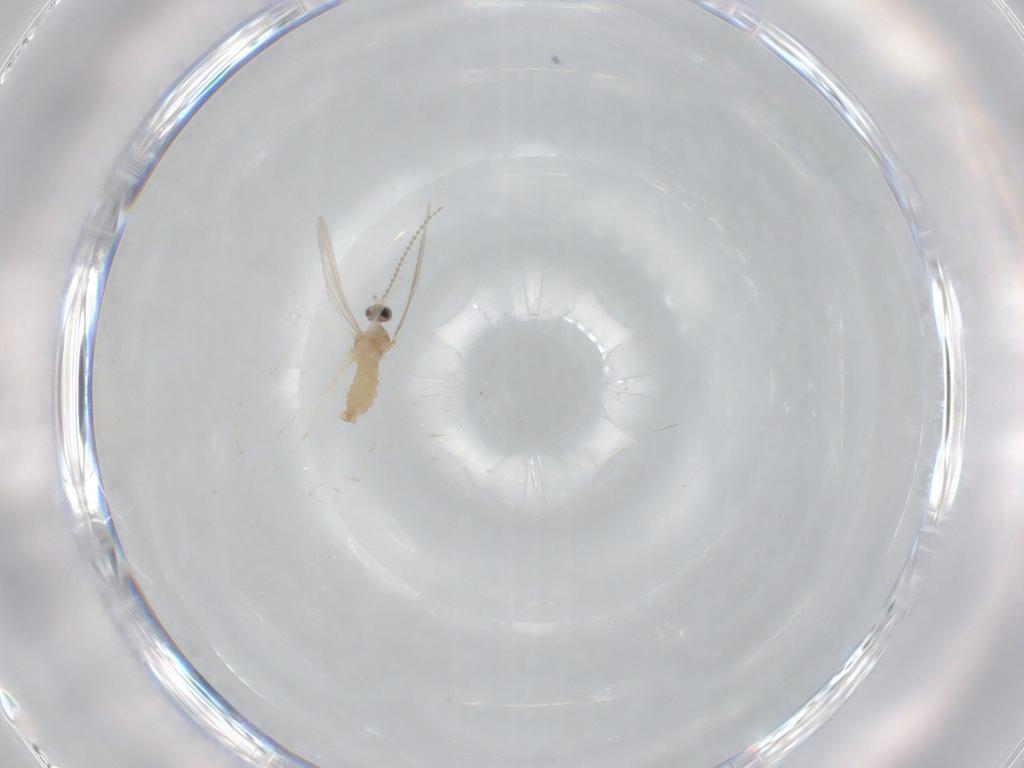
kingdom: Animalia
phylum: Arthropoda
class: Insecta
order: Diptera
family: Cecidomyiidae
